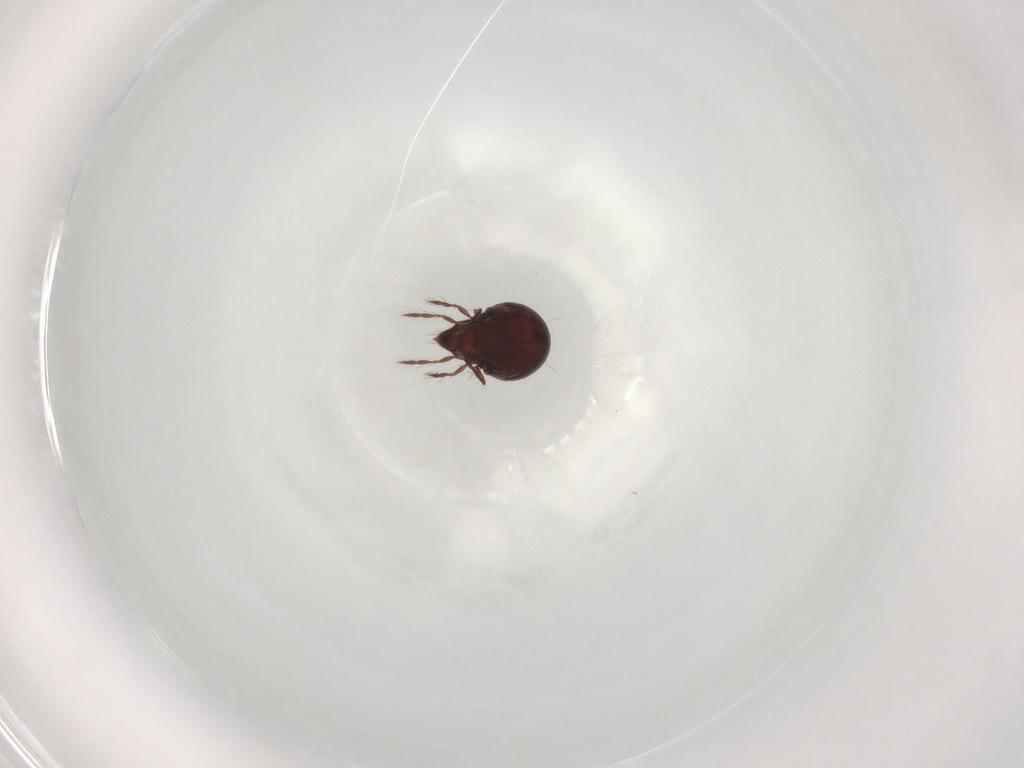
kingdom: Animalia
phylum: Arthropoda
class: Arachnida
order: Sarcoptiformes
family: Ceratoppiidae
